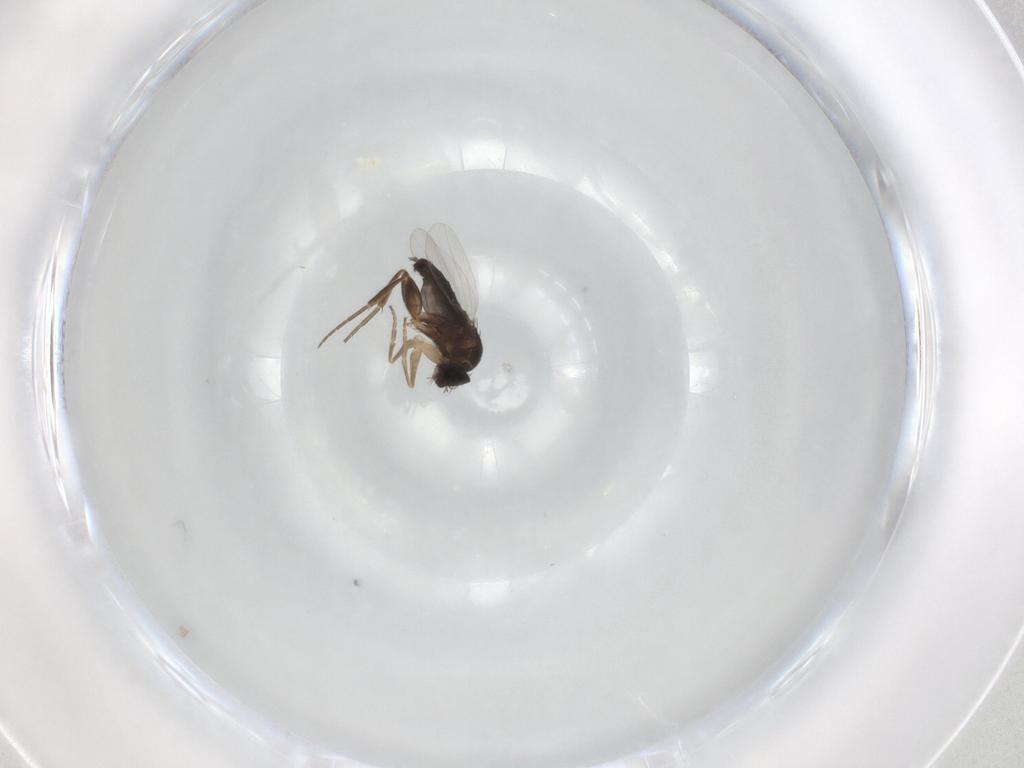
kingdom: Animalia
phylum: Arthropoda
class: Insecta
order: Diptera
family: Phoridae
